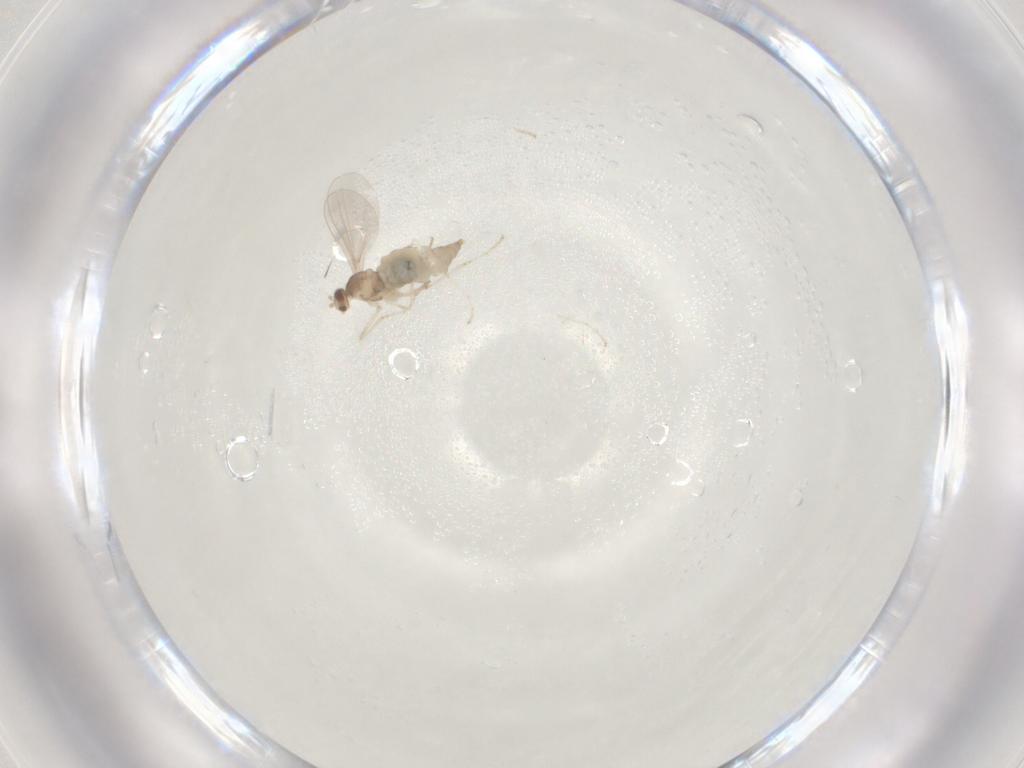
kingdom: Animalia
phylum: Arthropoda
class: Insecta
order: Diptera
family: Cecidomyiidae
